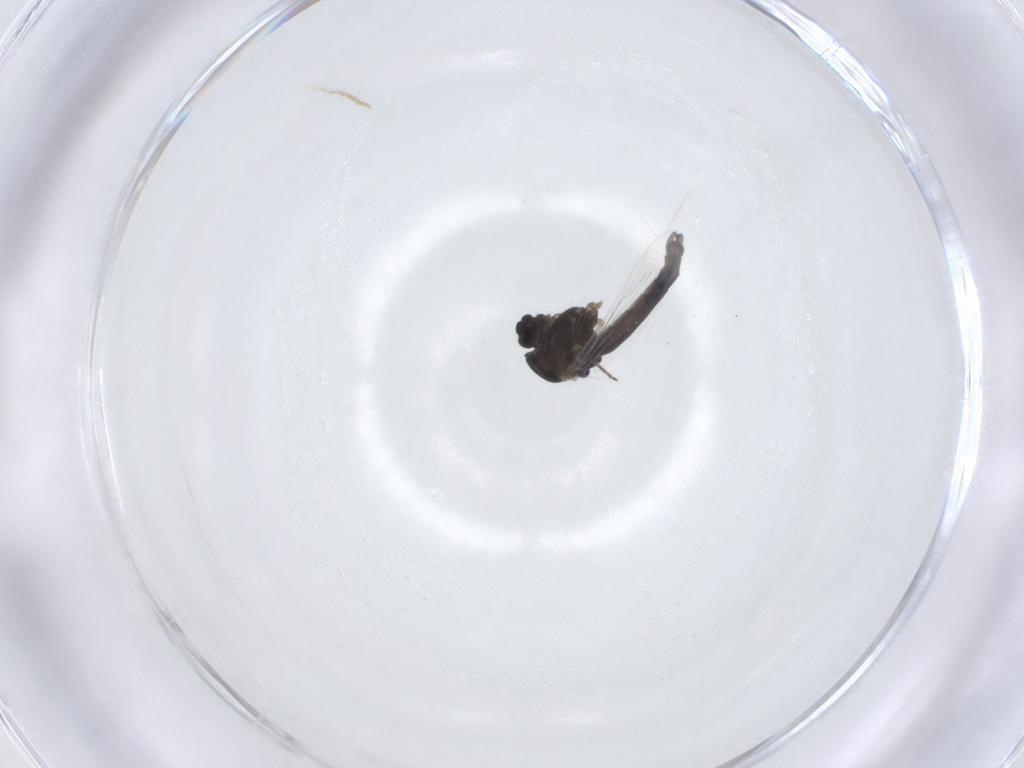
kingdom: Animalia
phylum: Arthropoda
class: Insecta
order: Diptera
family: Chironomidae
